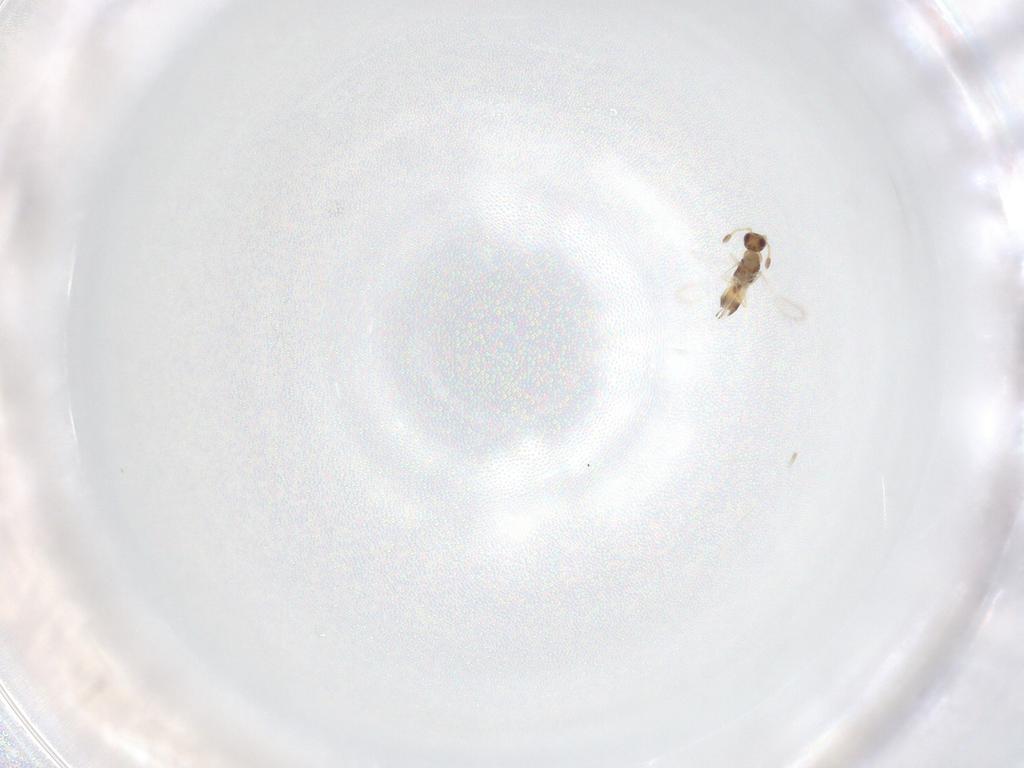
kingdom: Animalia
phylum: Arthropoda
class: Insecta
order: Hymenoptera
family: Mymaridae
